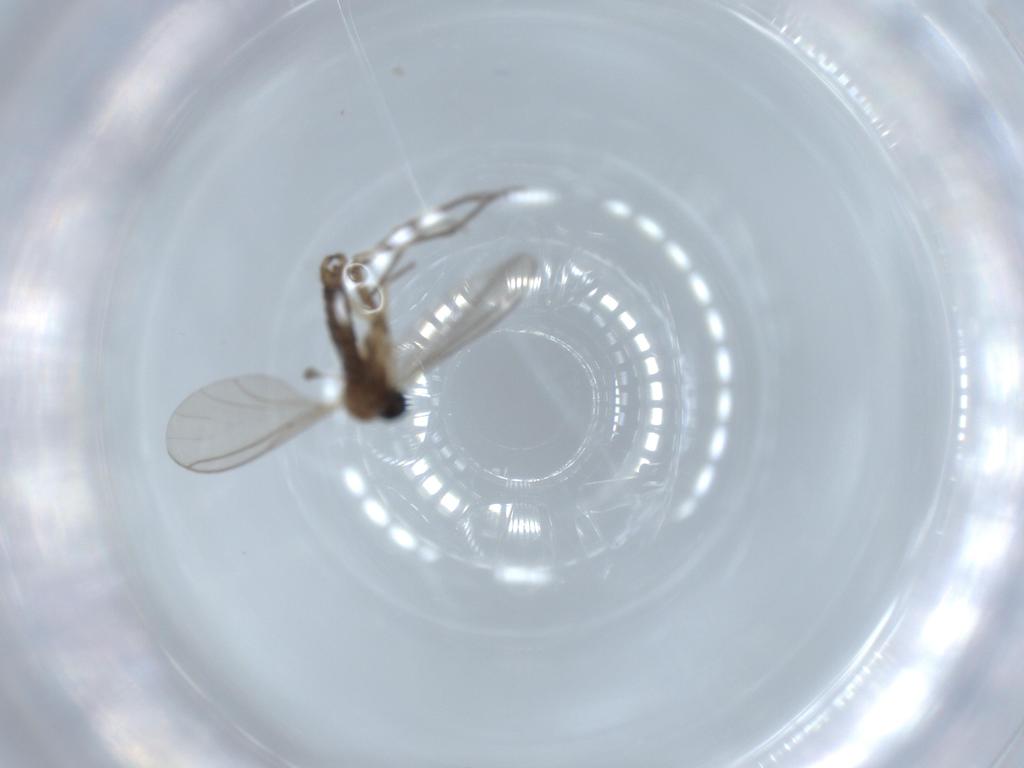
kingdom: Animalia
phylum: Arthropoda
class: Insecta
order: Diptera
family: Sciaridae
